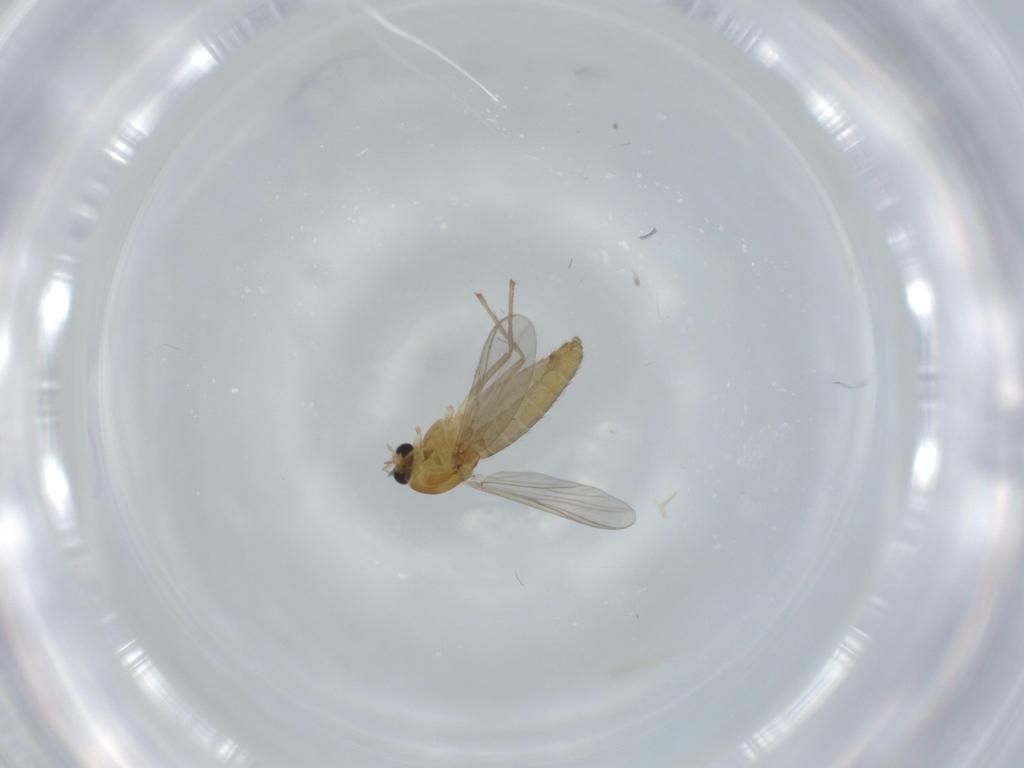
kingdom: Animalia
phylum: Arthropoda
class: Insecta
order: Diptera
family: Chironomidae
